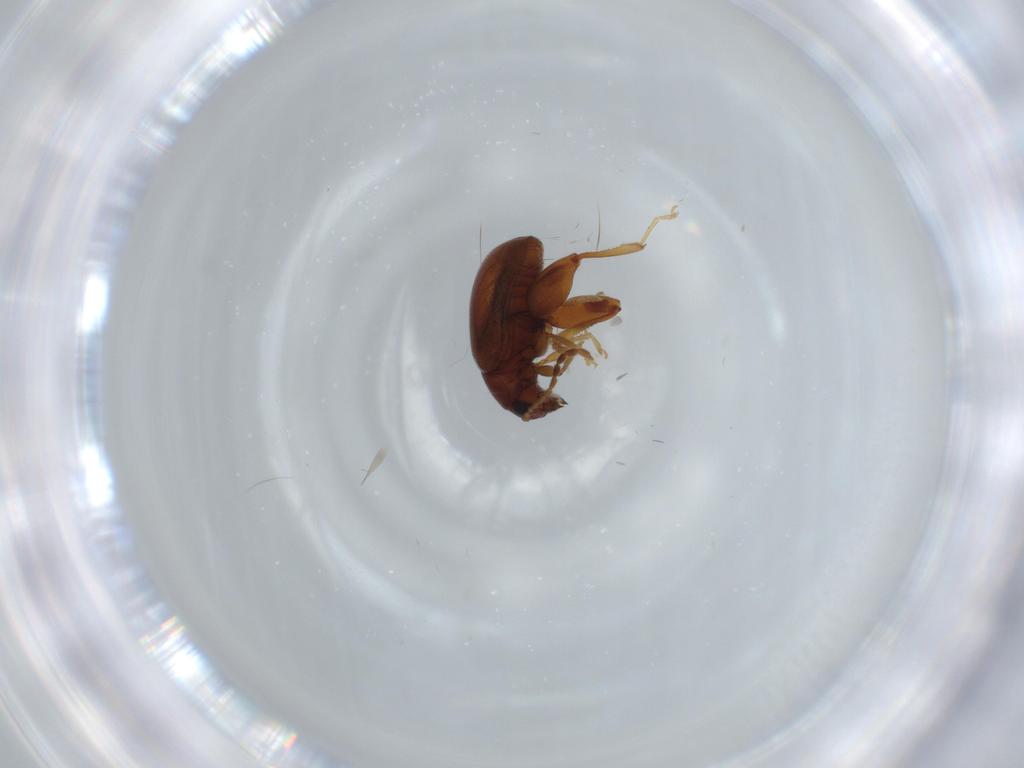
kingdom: Animalia
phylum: Arthropoda
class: Insecta
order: Coleoptera
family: Chrysomelidae
